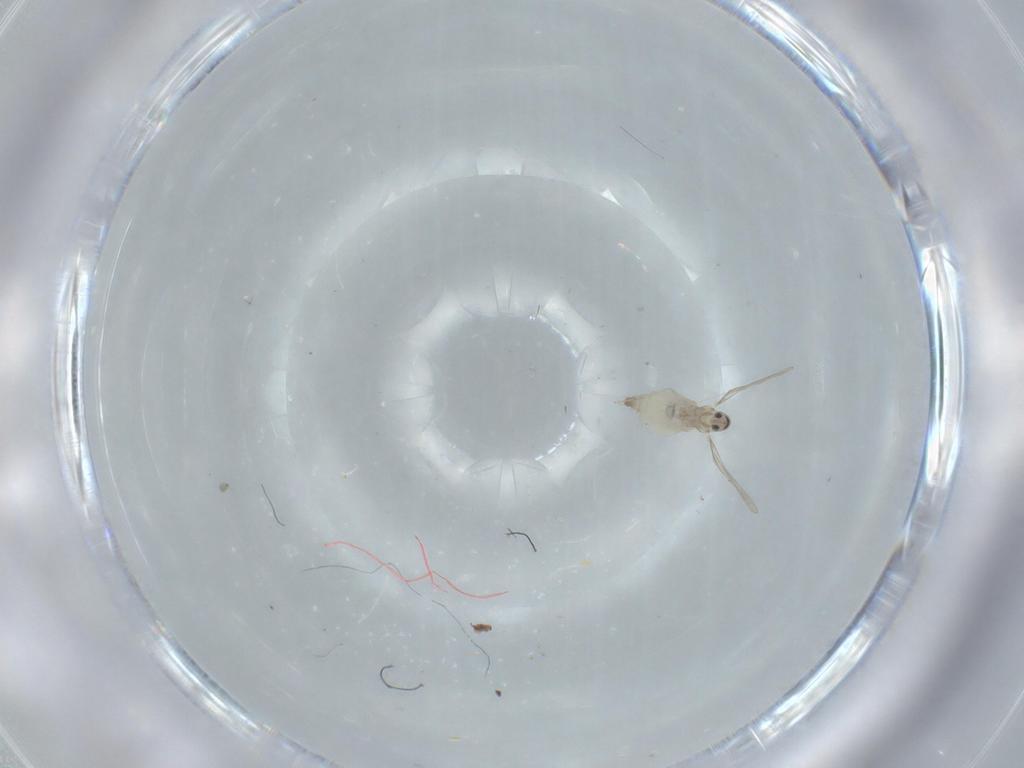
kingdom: Animalia
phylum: Arthropoda
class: Insecta
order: Diptera
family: Cecidomyiidae
